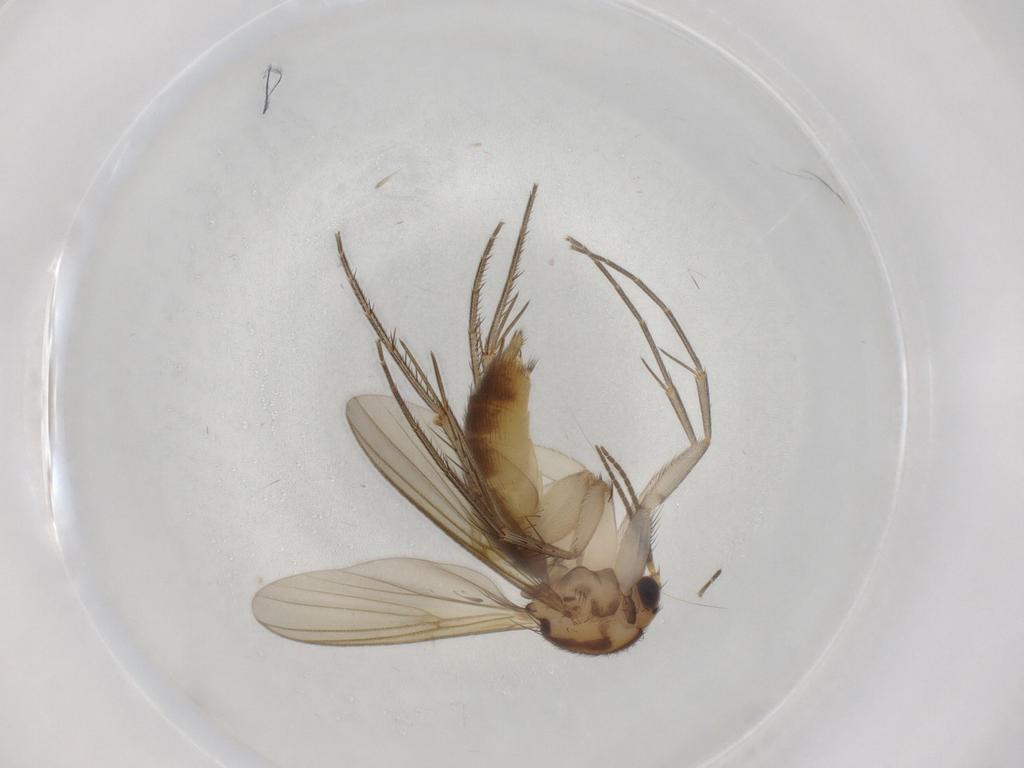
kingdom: Animalia
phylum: Arthropoda
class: Insecta
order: Diptera
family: Mycetophilidae
